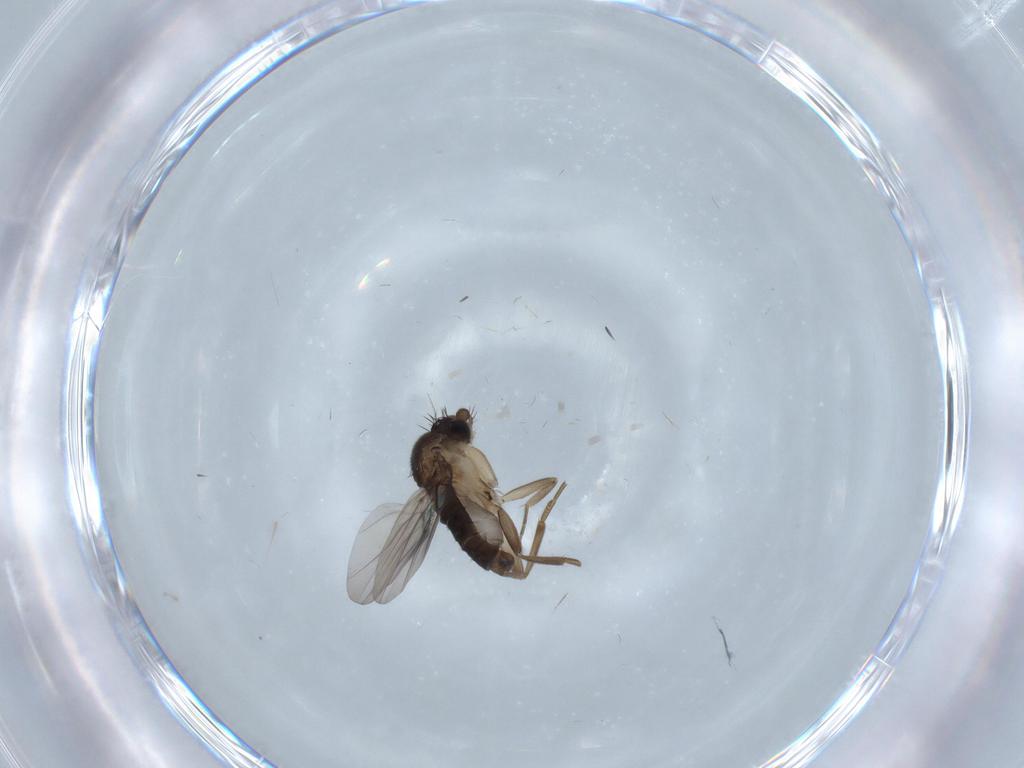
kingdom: Animalia
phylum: Arthropoda
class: Insecta
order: Diptera
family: Phoridae
